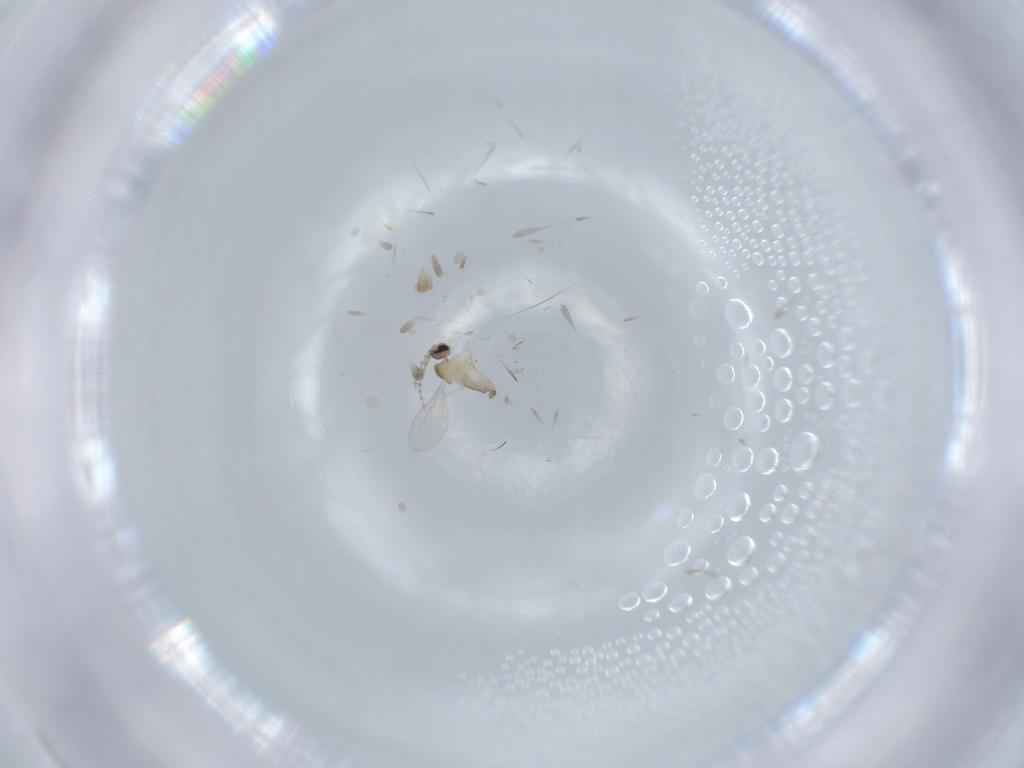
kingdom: Animalia
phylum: Arthropoda
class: Insecta
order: Diptera
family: Cecidomyiidae
